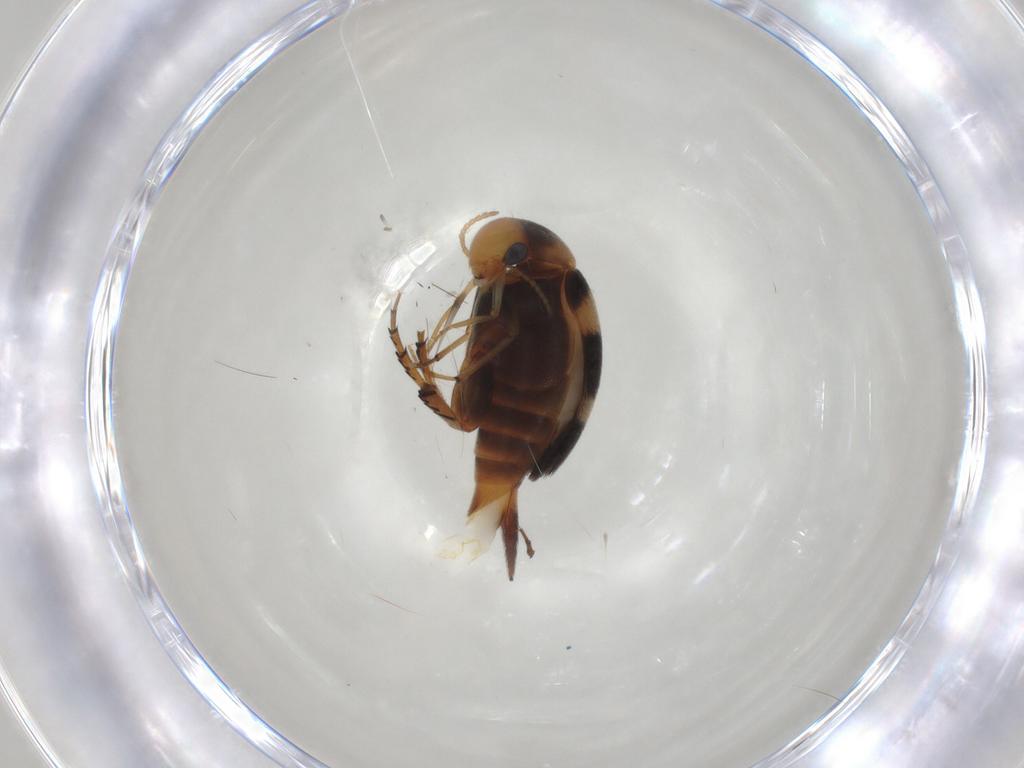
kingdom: Animalia
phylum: Arthropoda
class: Insecta
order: Coleoptera
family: Mordellidae
